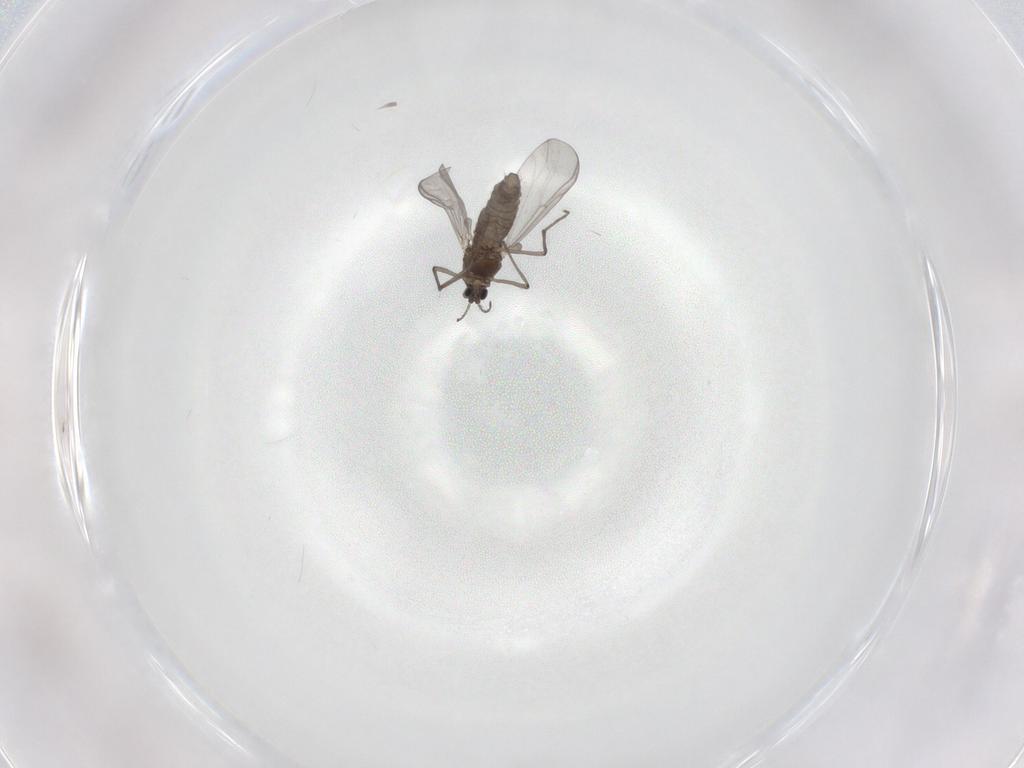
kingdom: Animalia
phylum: Arthropoda
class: Insecta
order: Diptera
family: Chironomidae
